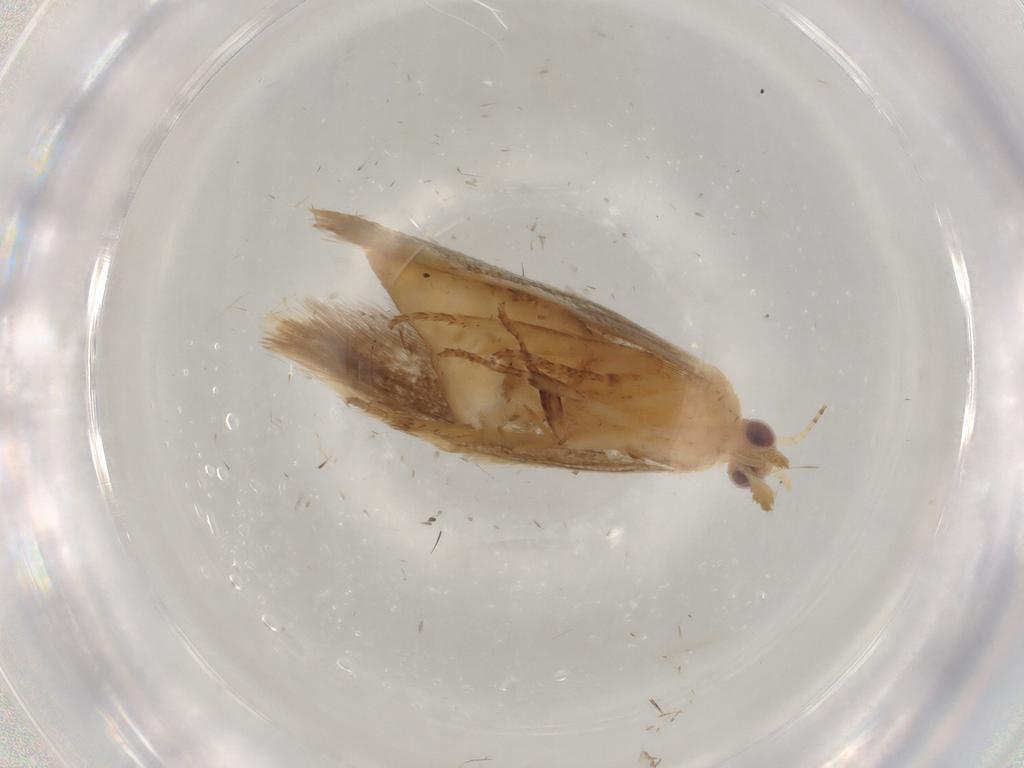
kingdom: Animalia
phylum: Arthropoda
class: Insecta
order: Lepidoptera
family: Crambidae
